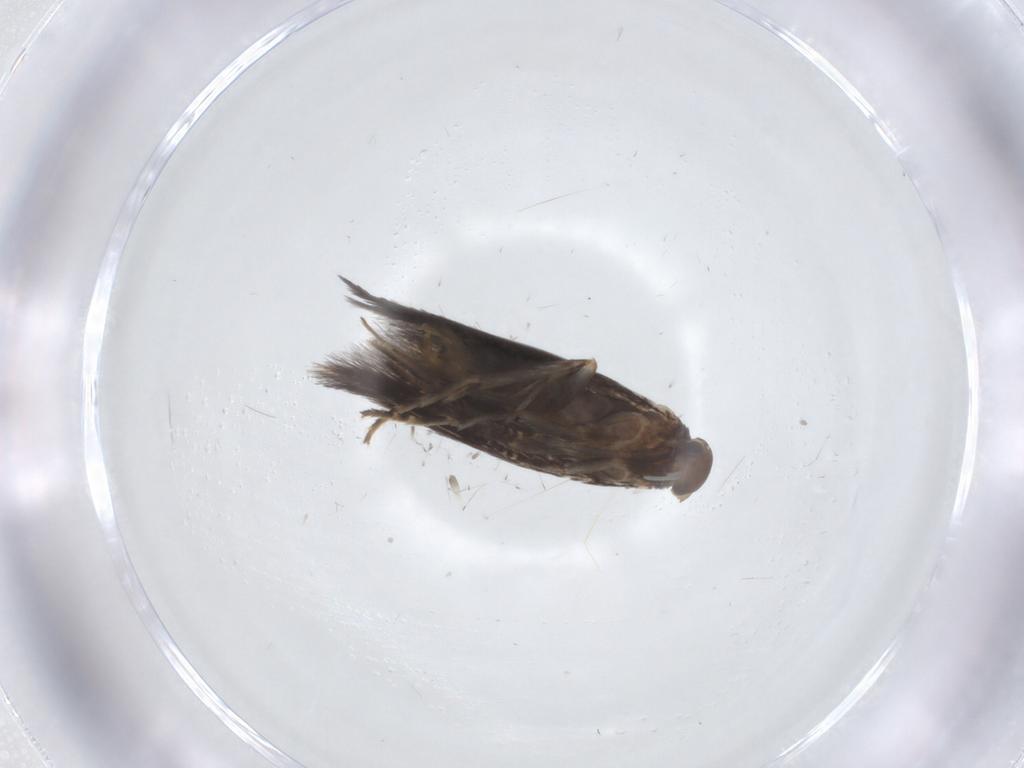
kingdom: Animalia
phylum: Arthropoda
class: Insecta
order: Lepidoptera
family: Elachistidae
